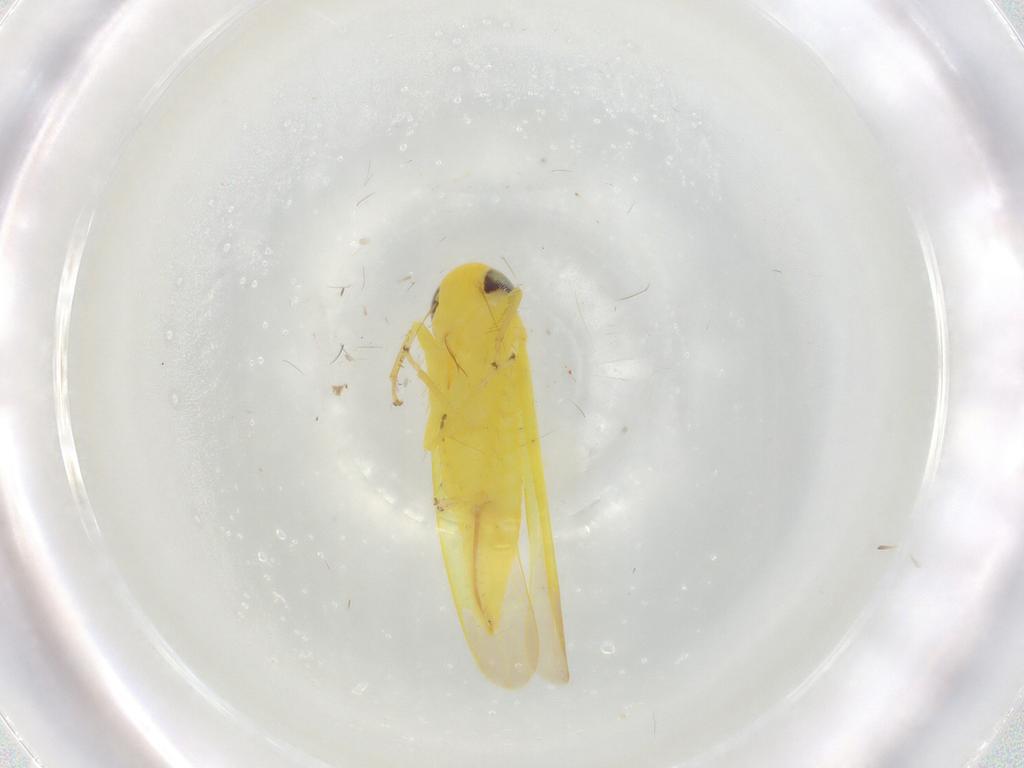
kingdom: Animalia
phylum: Arthropoda
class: Insecta
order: Hemiptera
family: Cicadellidae
